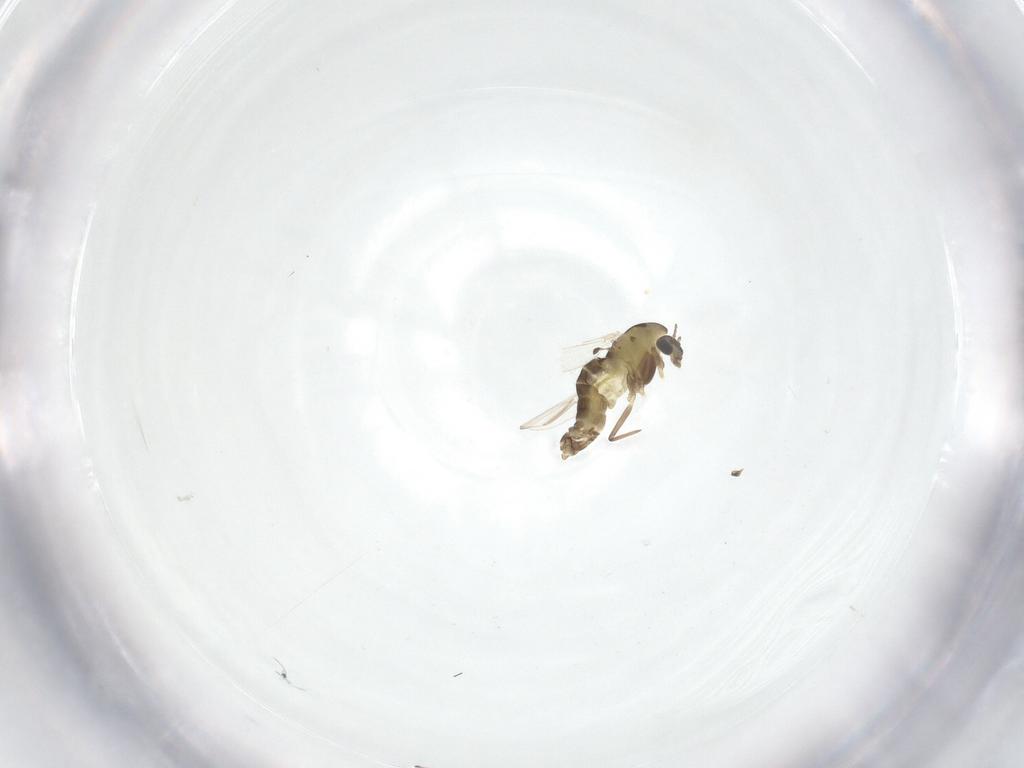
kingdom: Animalia
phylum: Arthropoda
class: Insecta
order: Diptera
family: Chironomidae
